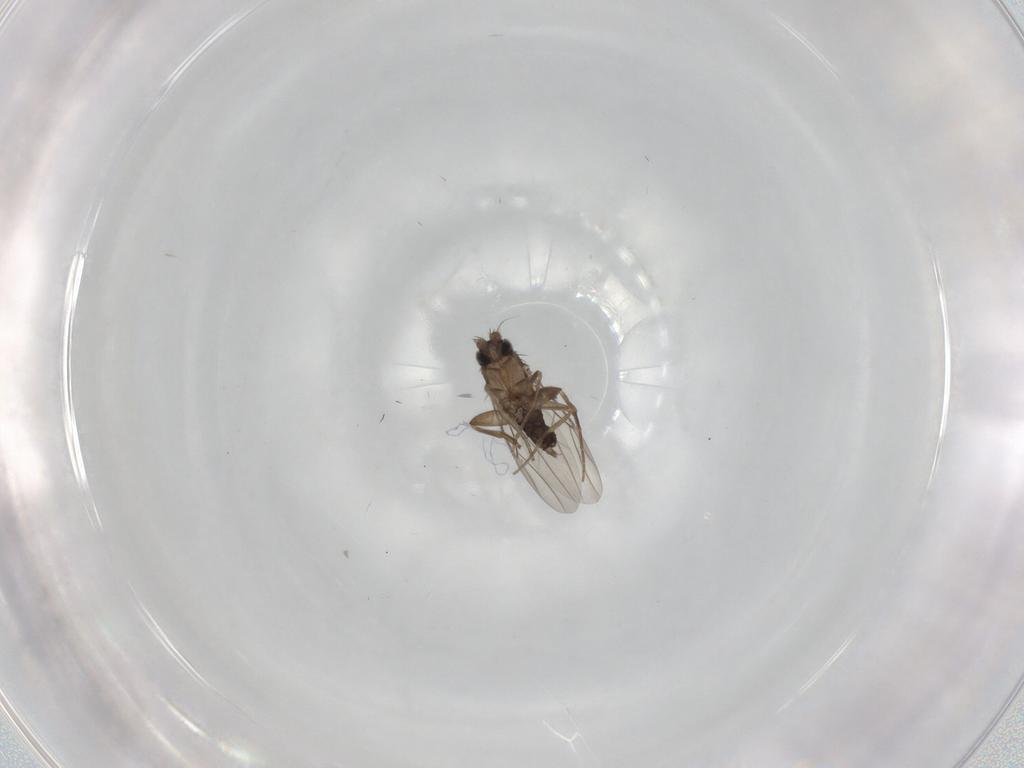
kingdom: Animalia
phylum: Arthropoda
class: Insecta
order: Diptera
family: Phoridae
